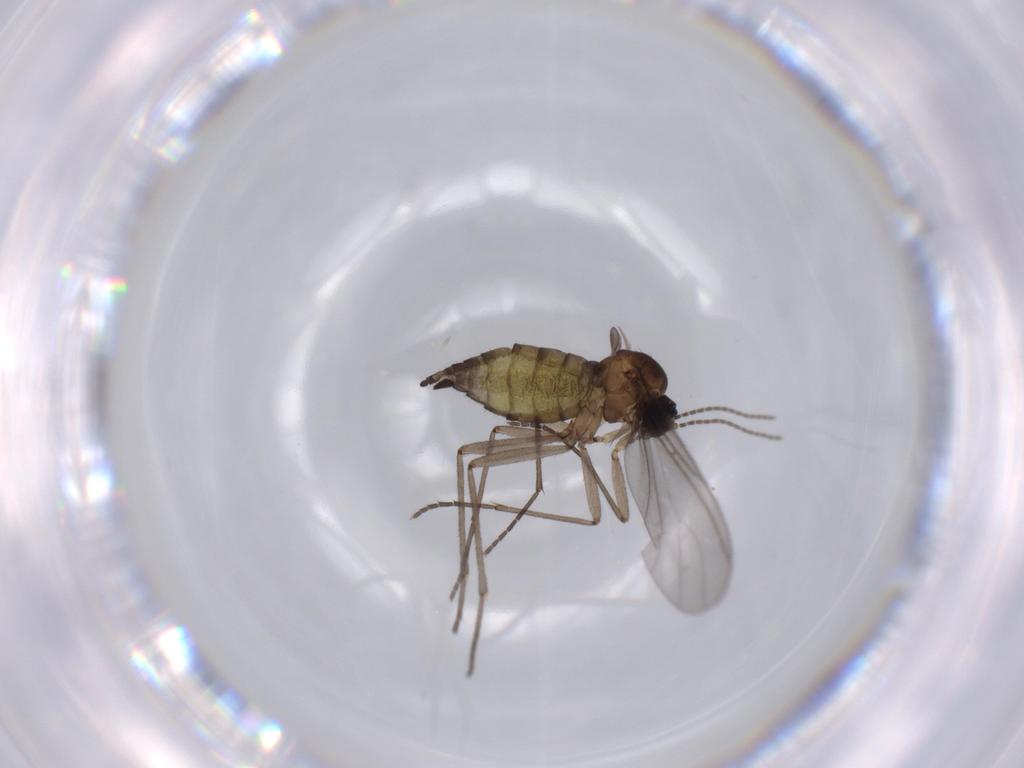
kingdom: Animalia
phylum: Arthropoda
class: Insecta
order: Diptera
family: Sciaridae
